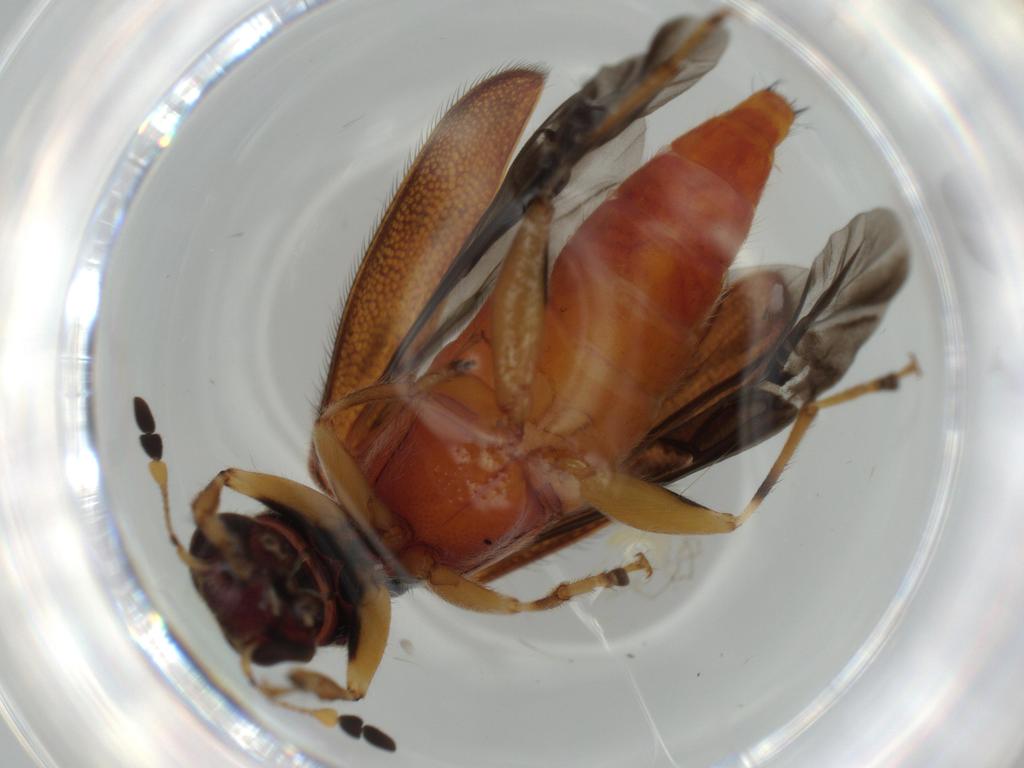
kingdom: Animalia
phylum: Arthropoda
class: Insecta
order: Coleoptera
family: Cleridae
